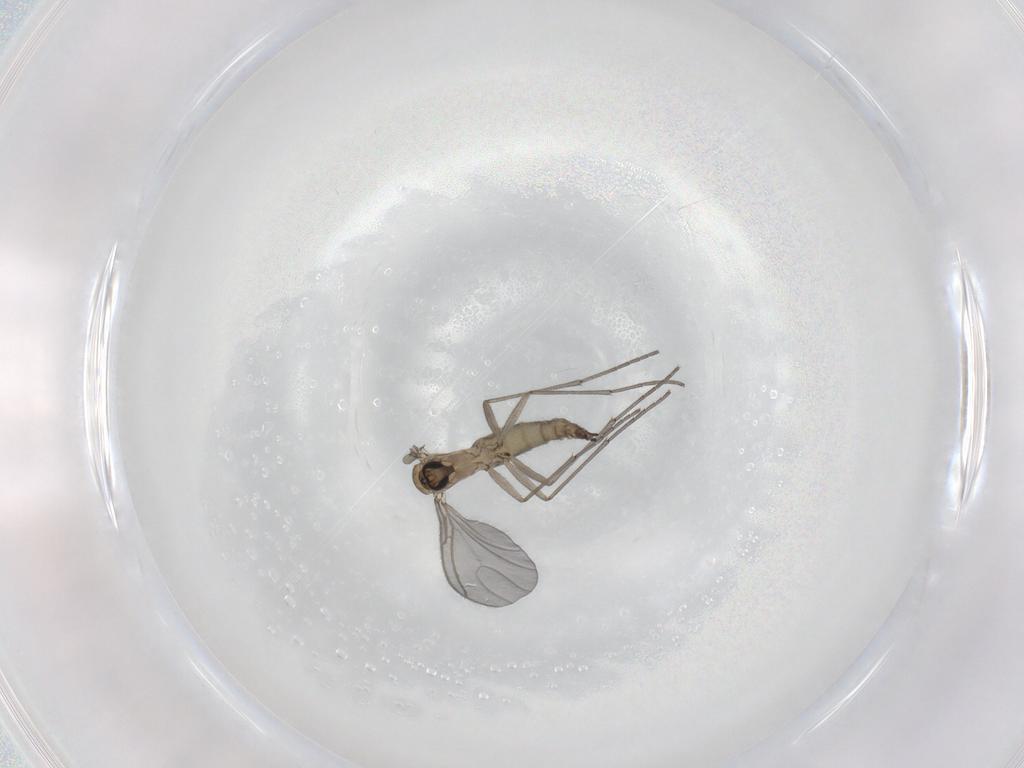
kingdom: Animalia
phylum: Arthropoda
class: Insecta
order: Diptera
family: Sciaridae
